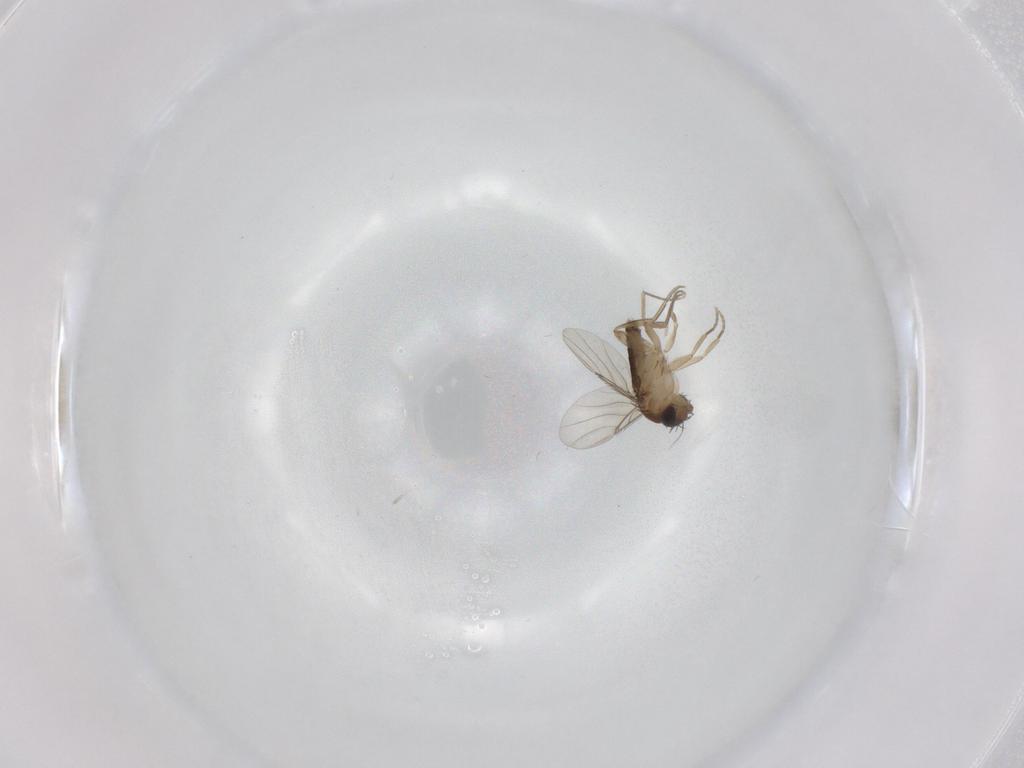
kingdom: Animalia
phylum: Arthropoda
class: Insecta
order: Diptera
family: Phoridae
